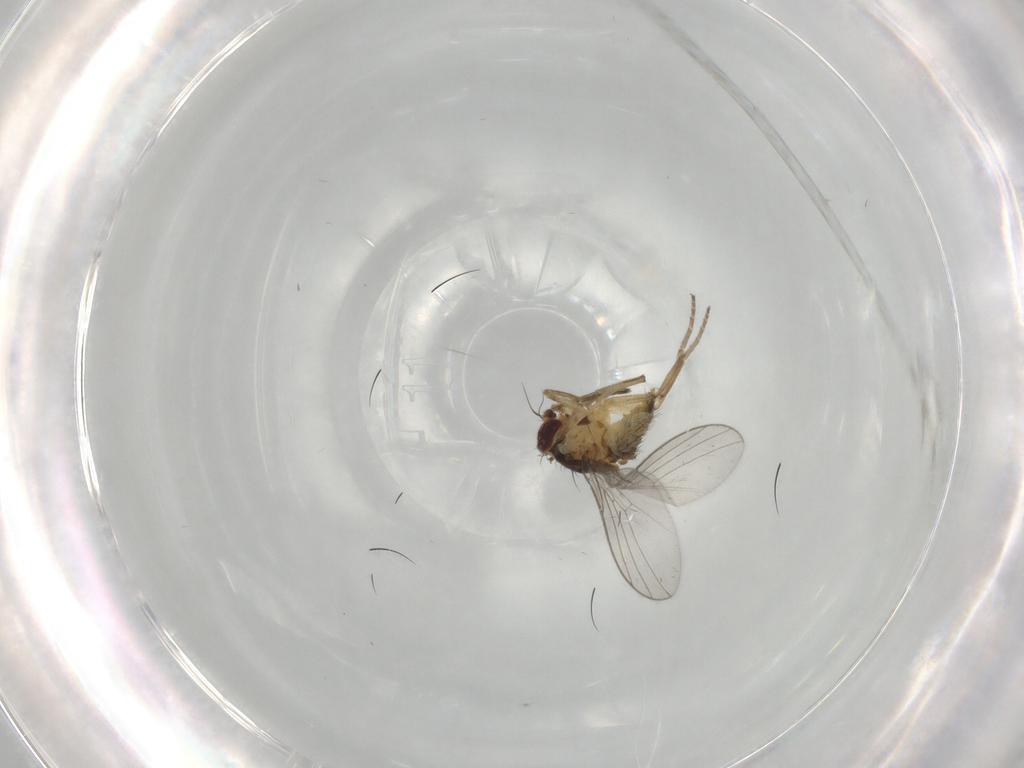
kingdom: Animalia
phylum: Arthropoda
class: Insecta
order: Diptera
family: Agromyzidae
